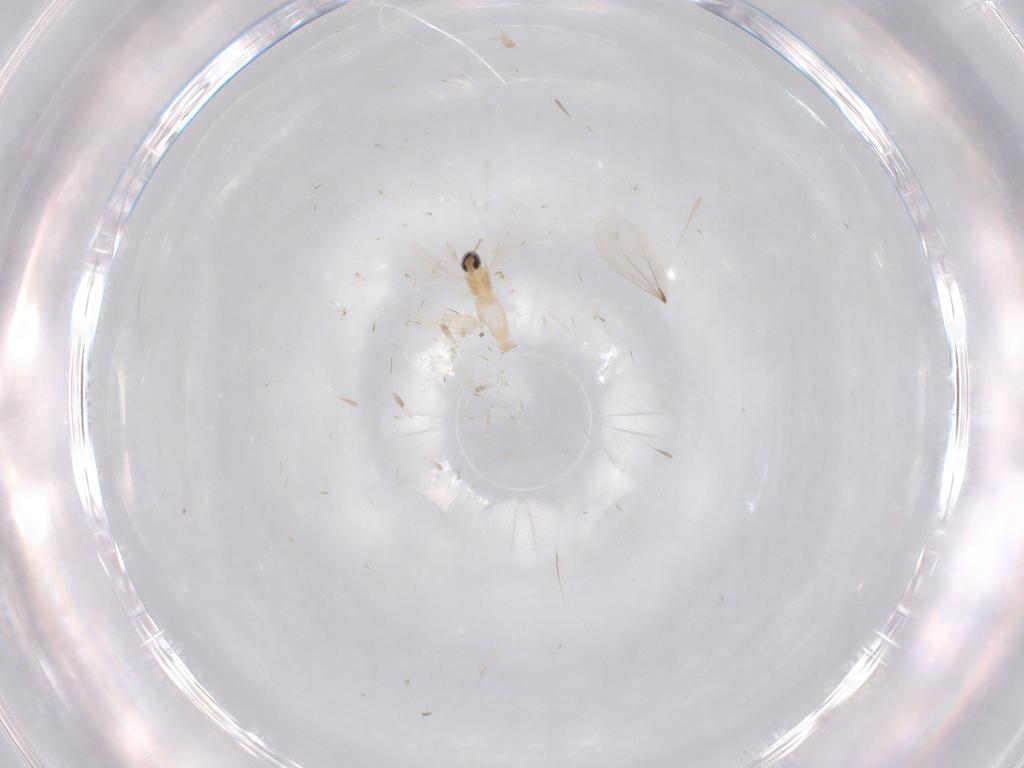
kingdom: Animalia
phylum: Arthropoda
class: Insecta
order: Diptera
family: Cecidomyiidae
